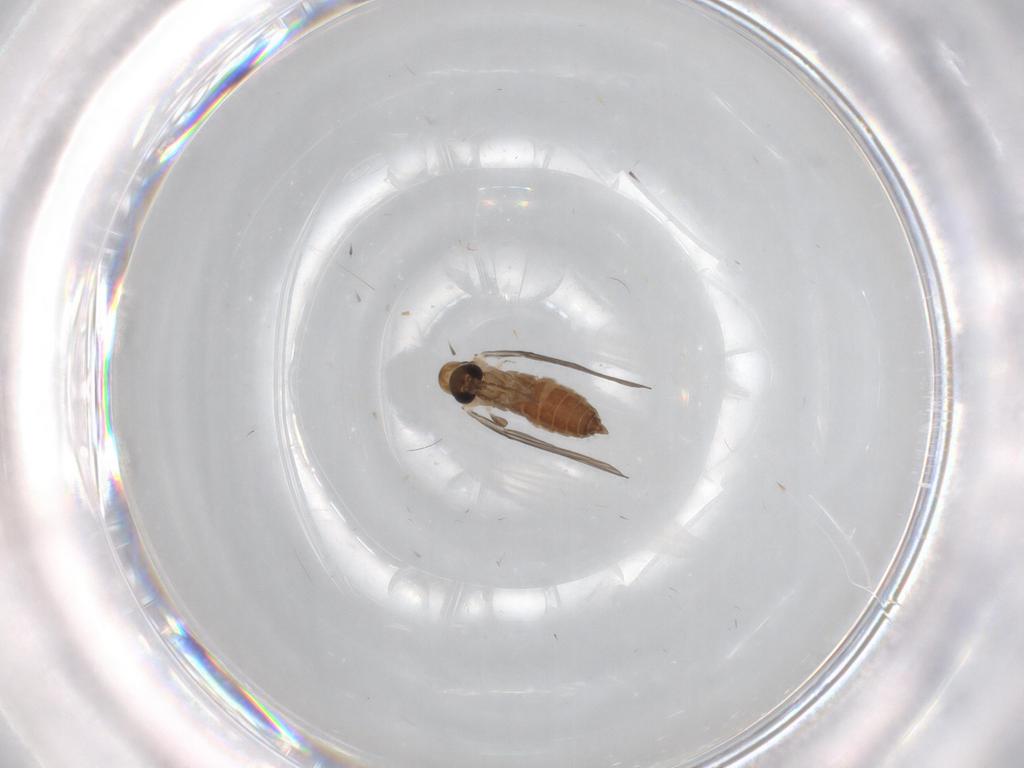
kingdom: Animalia
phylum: Arthropoda
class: Insecta
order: Diptera
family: Cecidomyiidae
